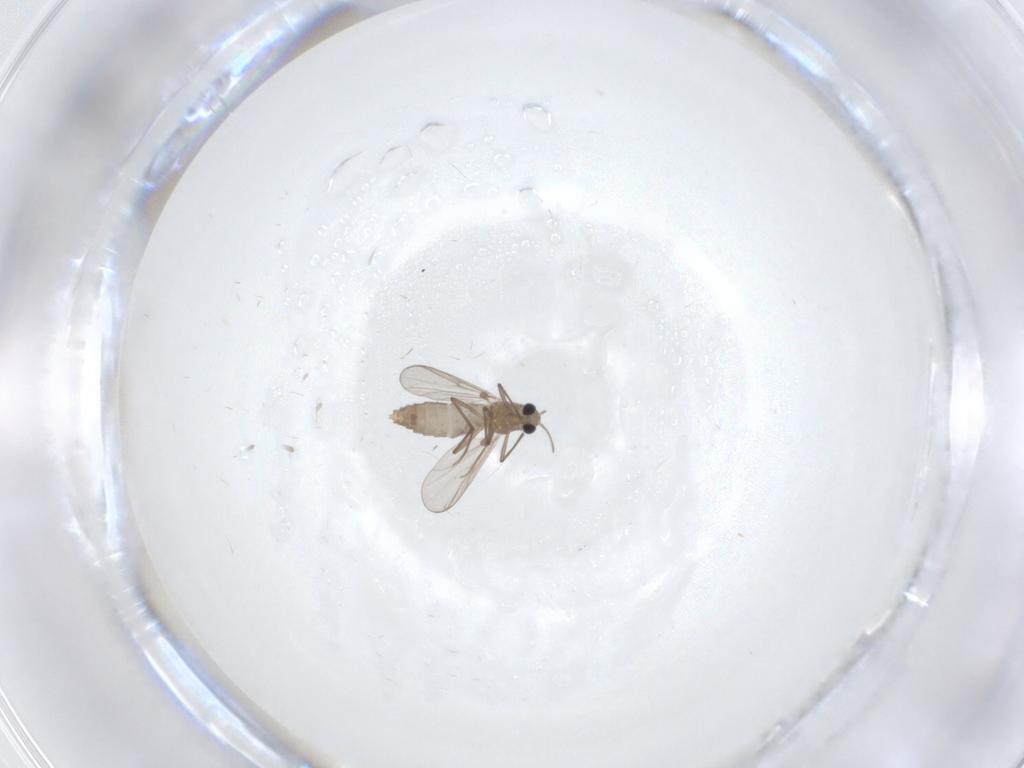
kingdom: Animalia
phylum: Arthropoda
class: Insecta
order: Diptera
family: Chironomidae
